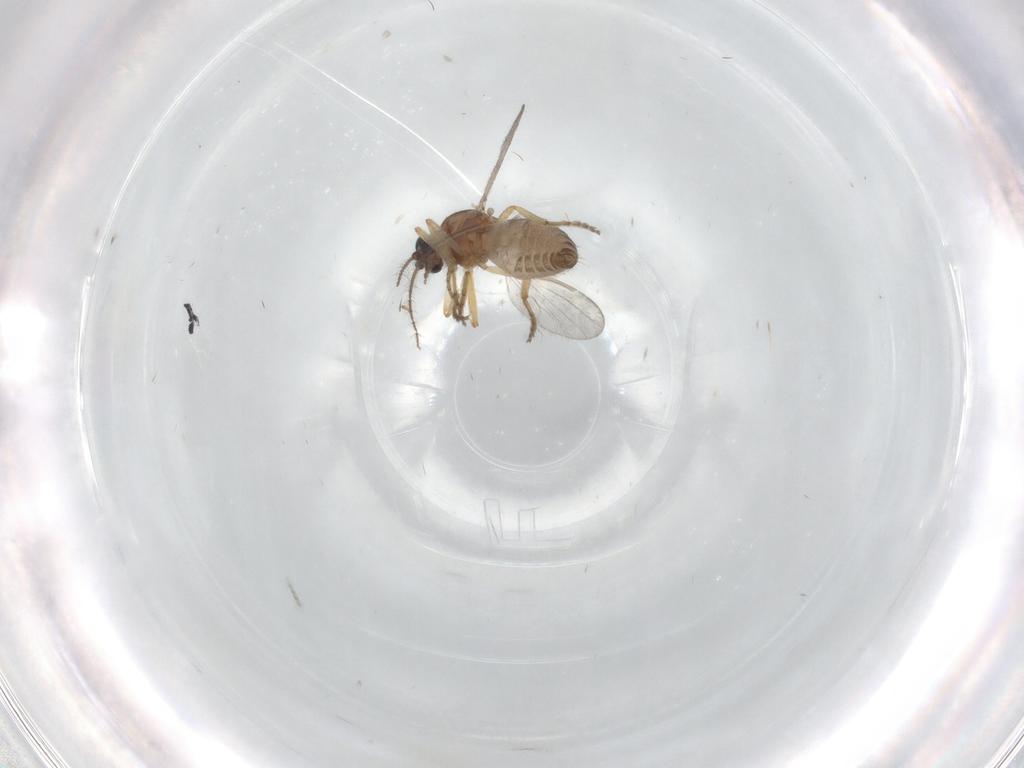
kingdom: Animalia
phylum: Arthropoda
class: Insecta
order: Diptera
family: Ceratopogonidae
